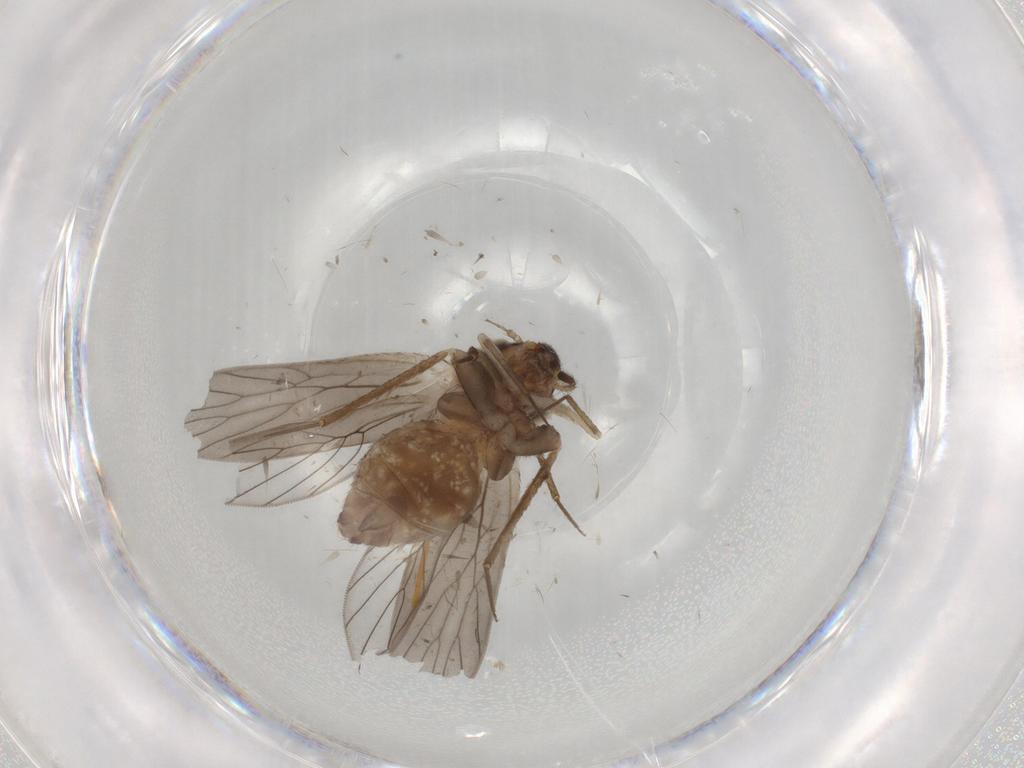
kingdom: Animalia
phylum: Arthropoda
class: Insecta
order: Psocodea
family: Lepidopsocidae
